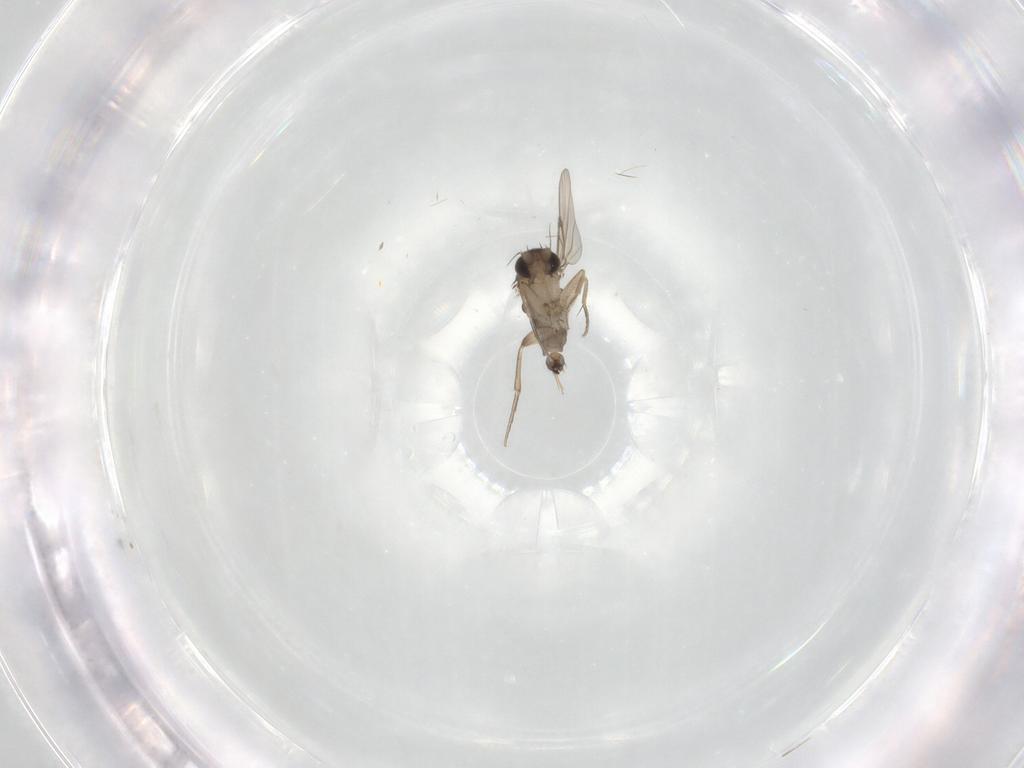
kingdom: Animalia
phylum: Arthropoda
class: Insecta
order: Diptera
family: Phoridae
